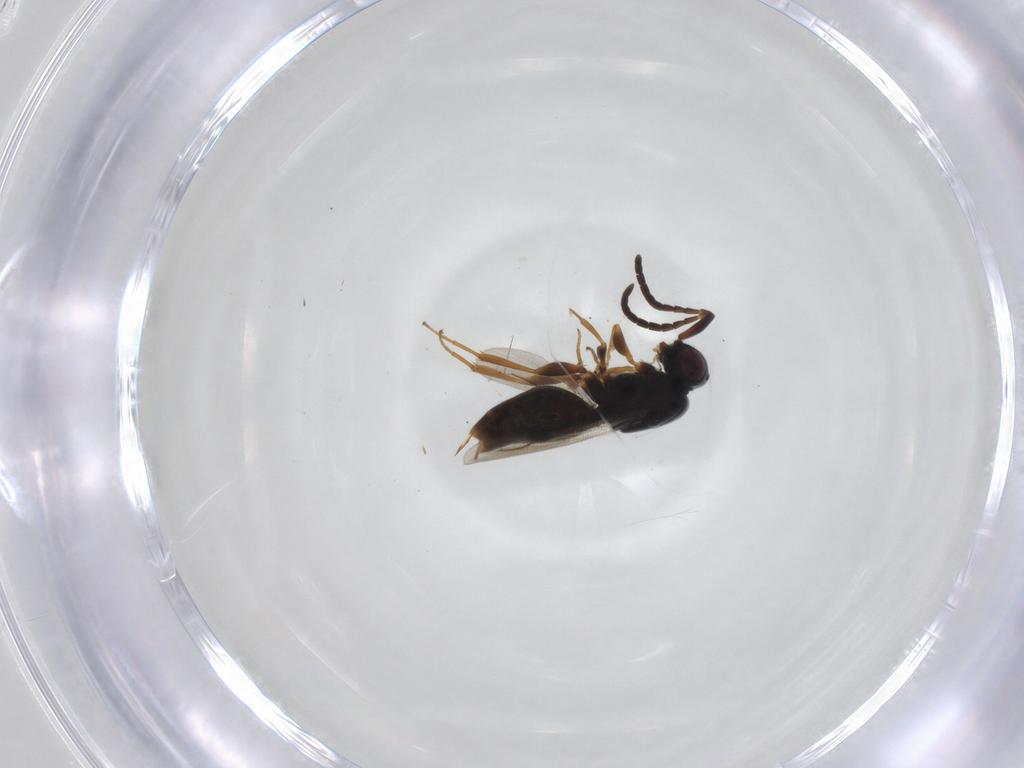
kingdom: Animalia
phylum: Arthropoda
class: Insecta
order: Hymenoptera
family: Megaspilidae
